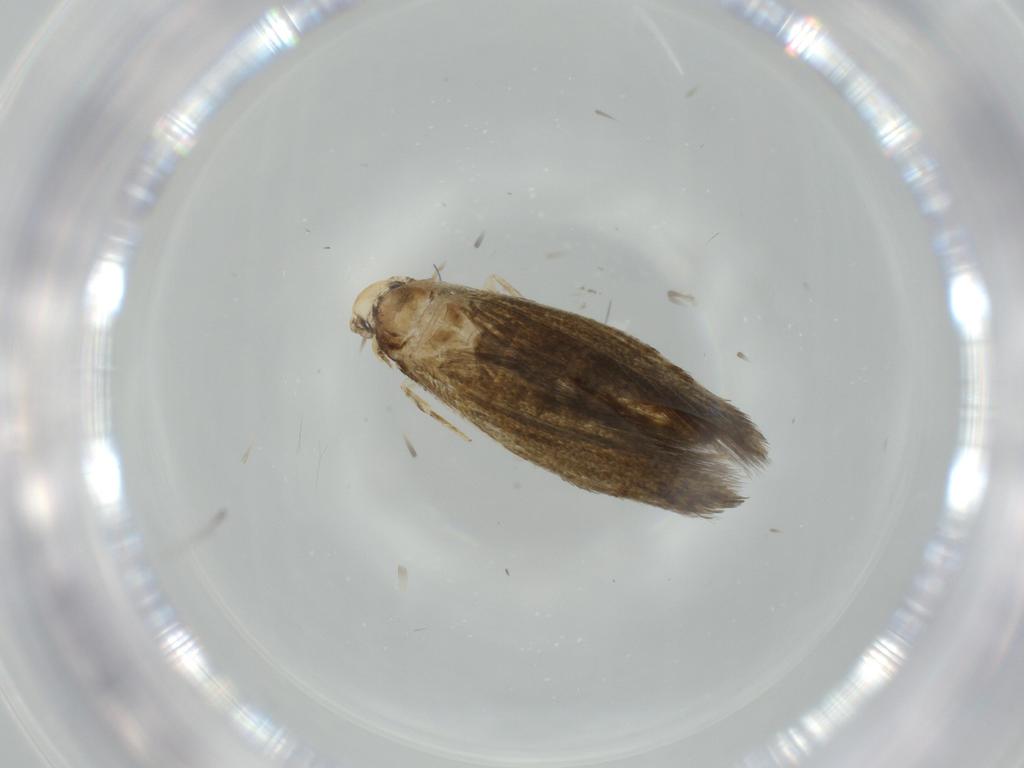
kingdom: Animalia
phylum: Arthropoda
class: Insecta
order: Lepidoptera
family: Tineidae
